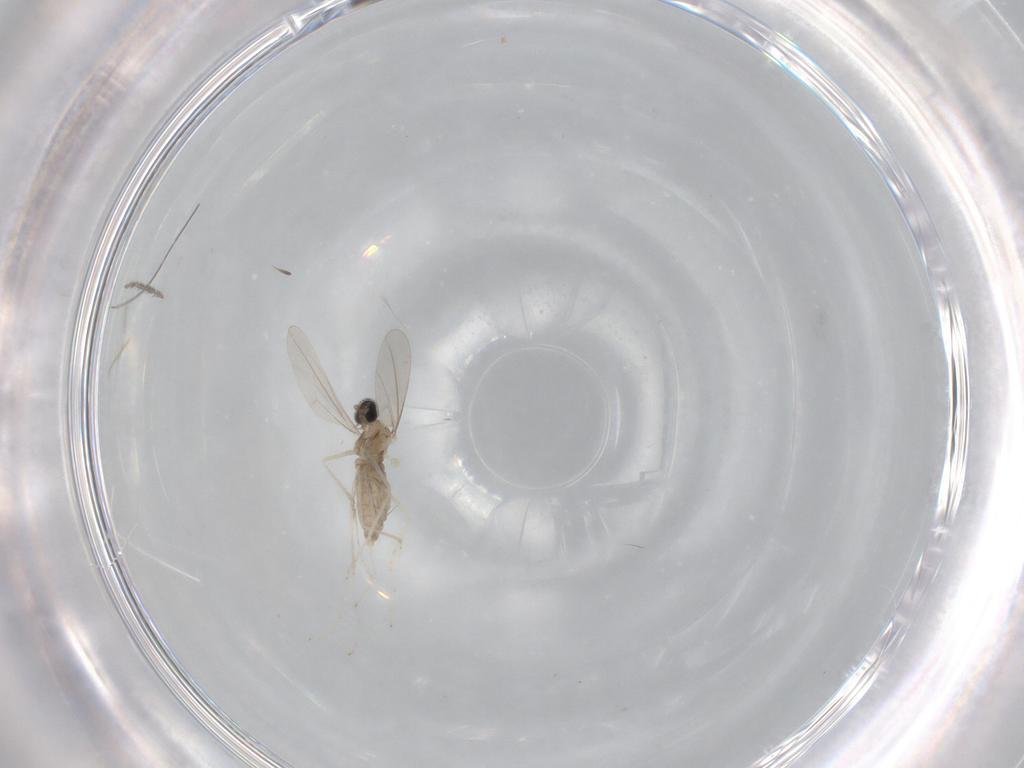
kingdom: Animalia
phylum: Arthropoda
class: Insecta
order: Diptera
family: Cecidomyiidae
